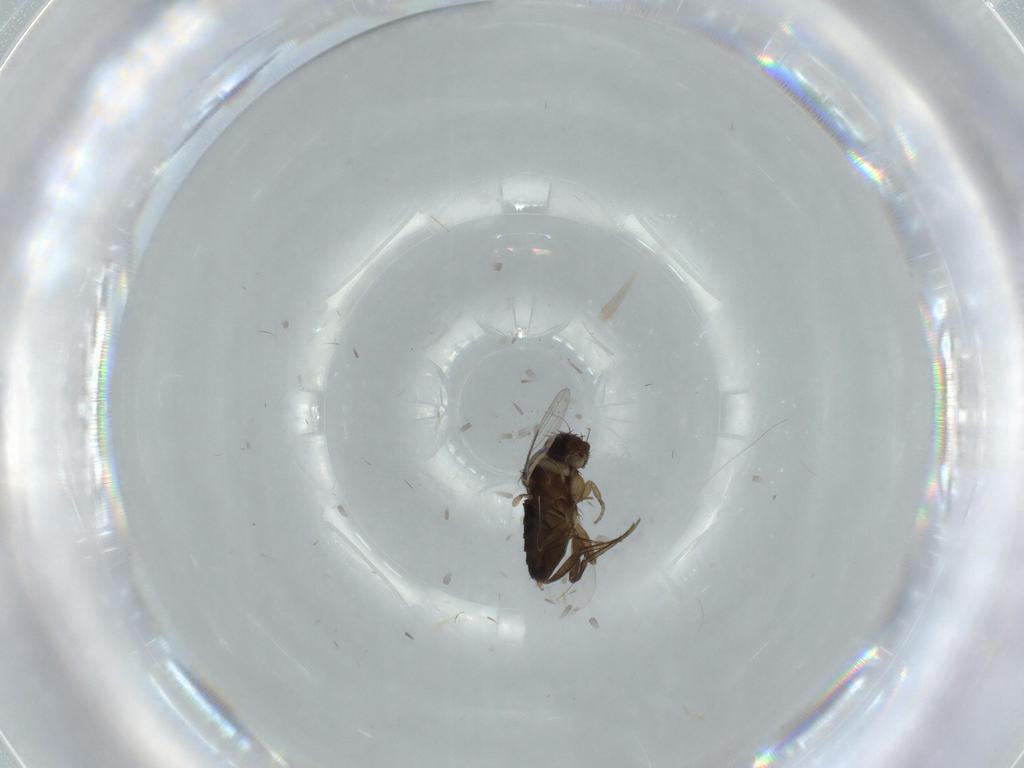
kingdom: Animalia
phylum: Arthropoda
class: Insecta
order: Diptera
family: Phoridae
